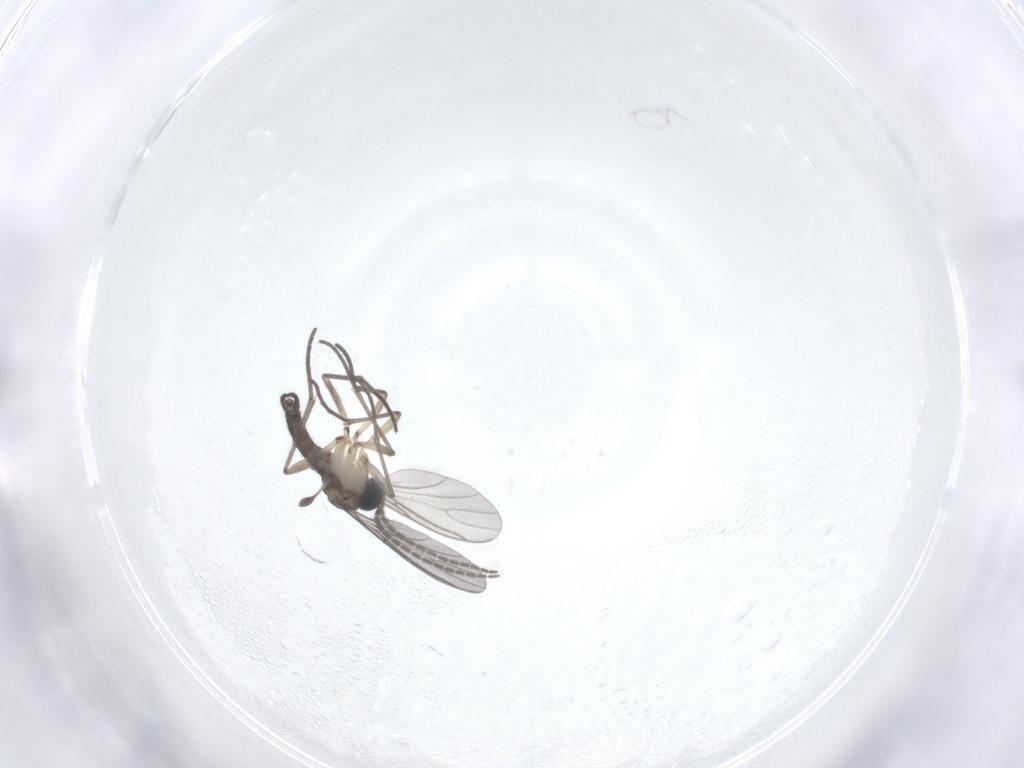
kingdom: Animalia
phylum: Arthropoda
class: Insecta
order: Diptera
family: Sciaridae
